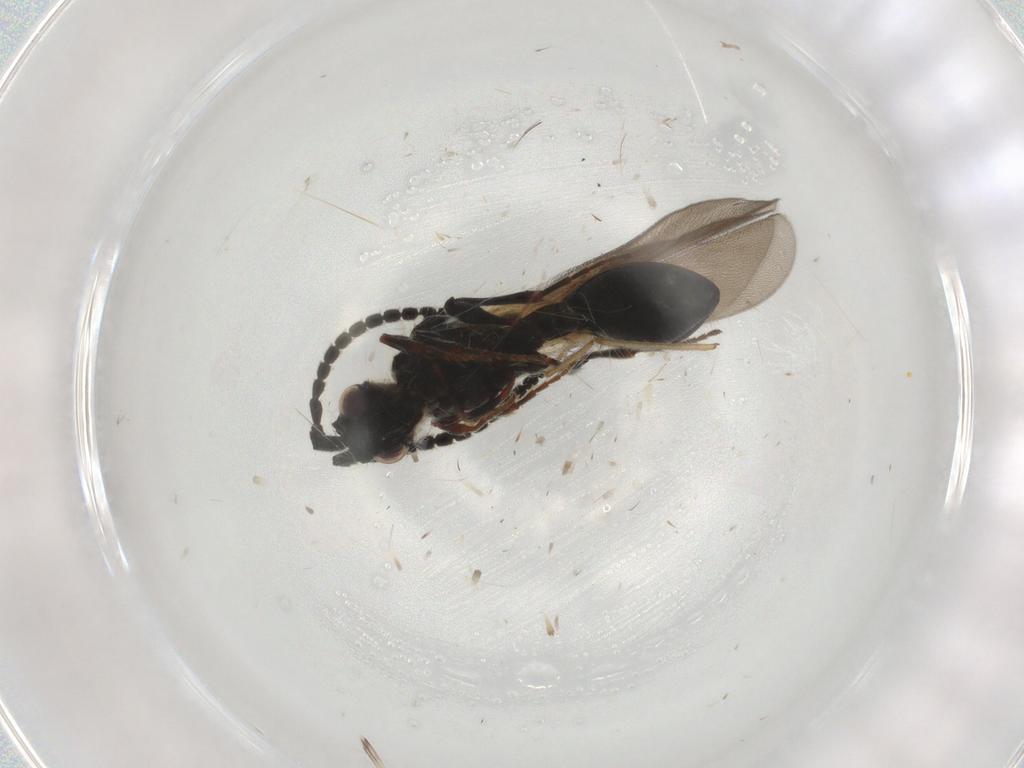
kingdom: Animalia
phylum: Arthropoda
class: Insecta
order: Hymenoptera
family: Diapriidae
